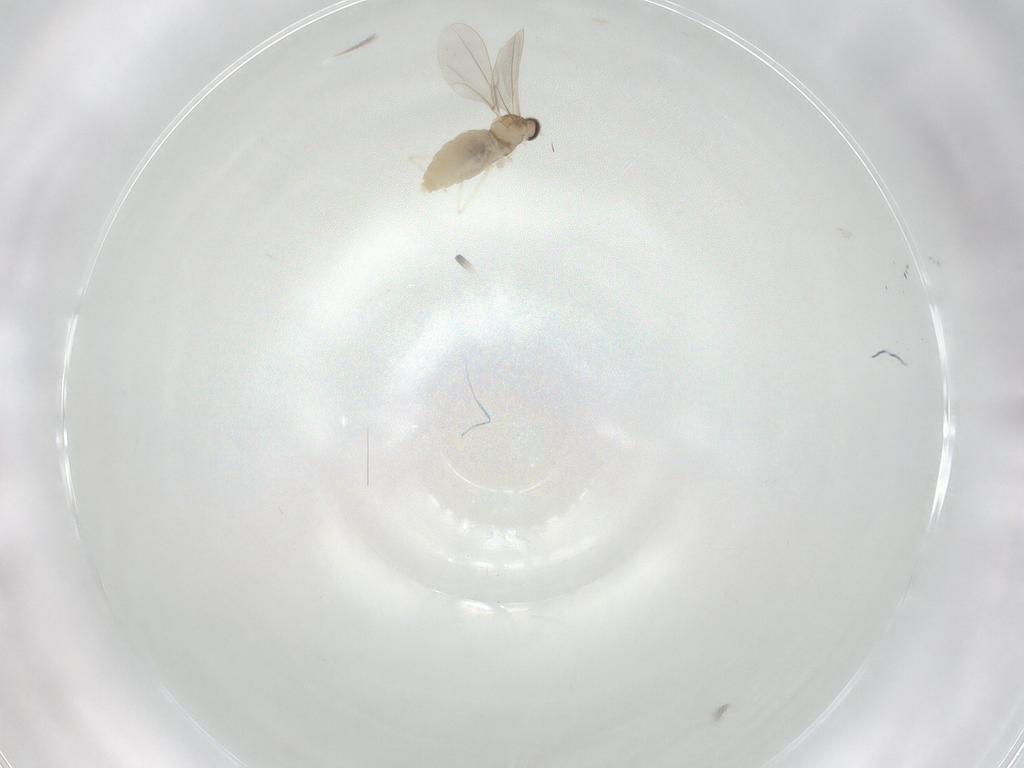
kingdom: Animalia
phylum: Arthropoda
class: Insecta
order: Diptera
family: Cecidomyiidae
